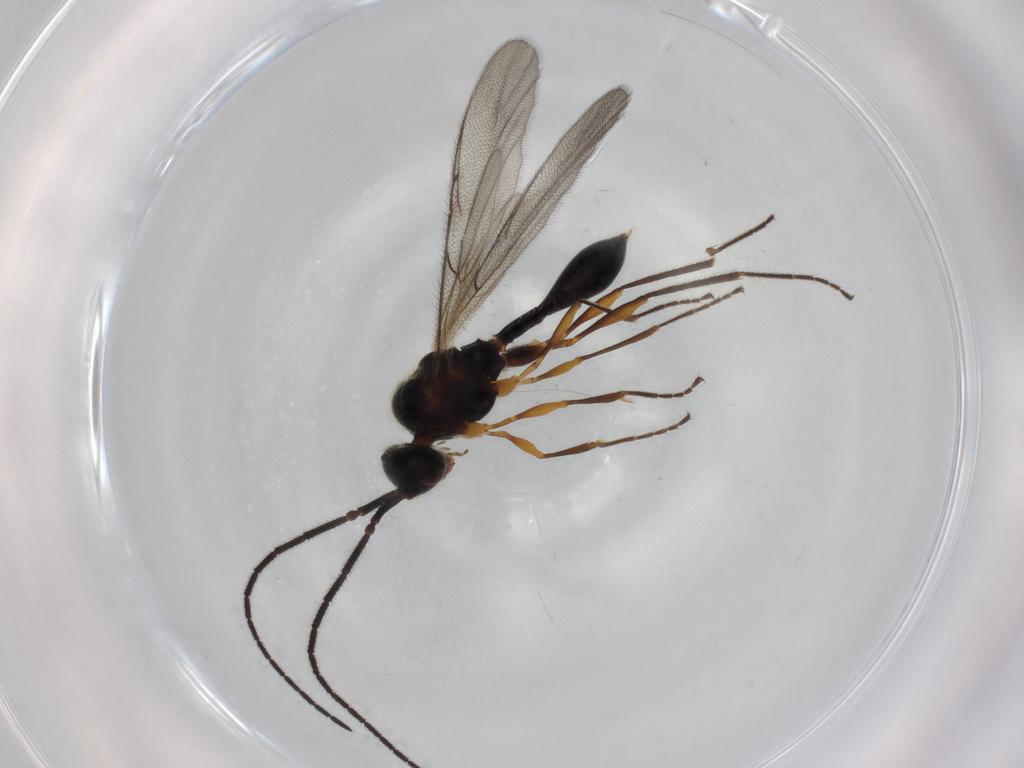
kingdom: Animalia
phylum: Arthropoda
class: Insecta
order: Hymenoptera
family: Diapriidae
